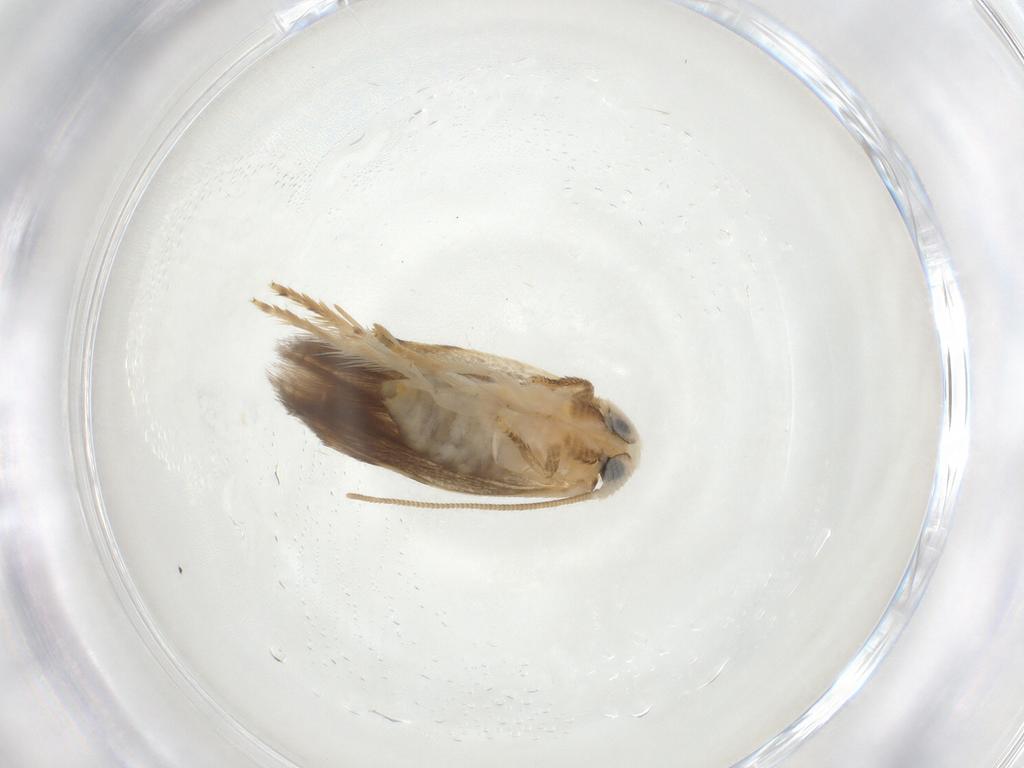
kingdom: Animalia
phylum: Arthropoda
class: Insecta
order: Lepidoptera
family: Opostegidae
